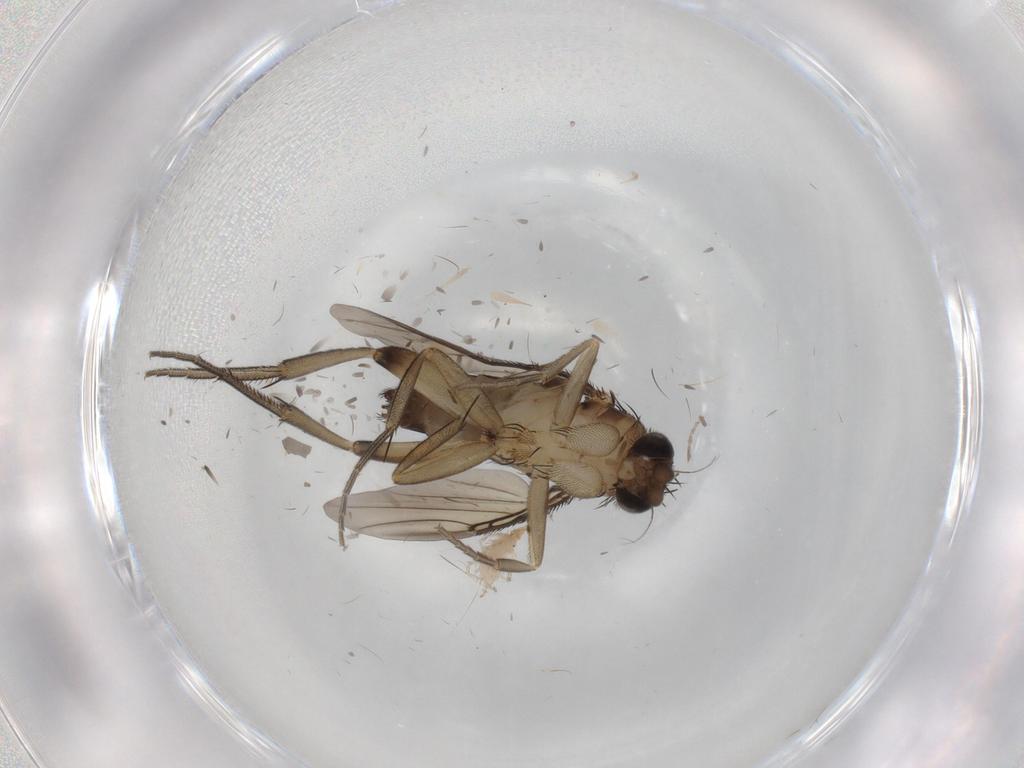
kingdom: Animalia
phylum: Arthropoda
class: Insecta
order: Diptera
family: Phoridae
